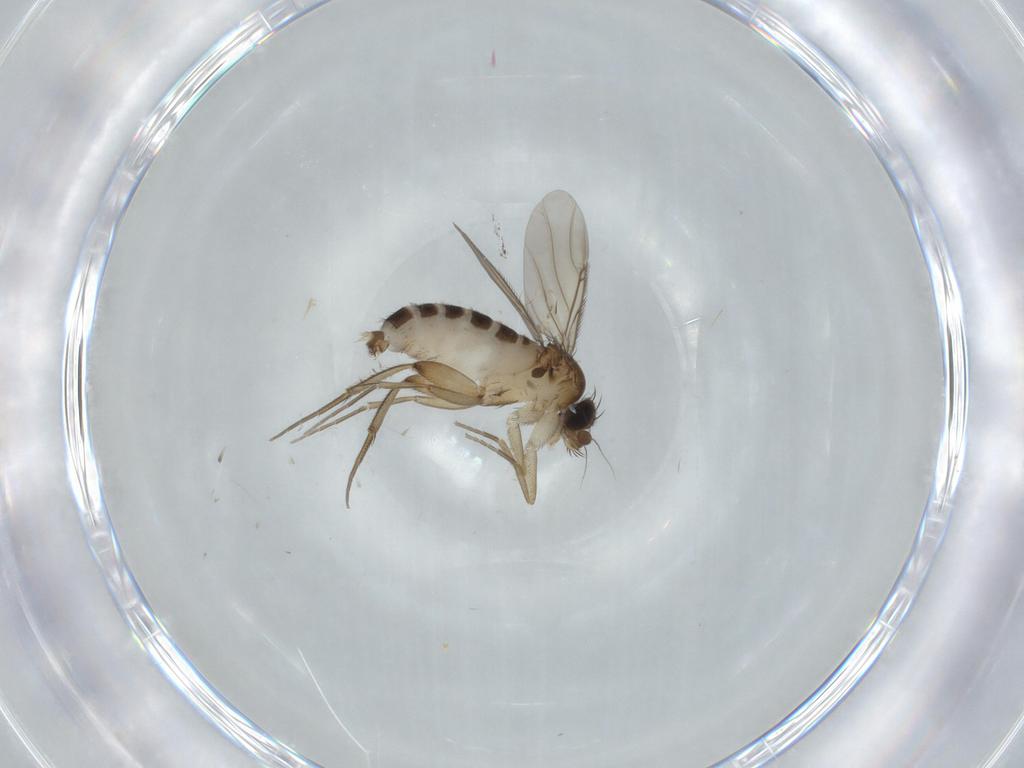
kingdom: Animalia
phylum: Arthropoda
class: Insecta
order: Diptera
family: Phoridae
